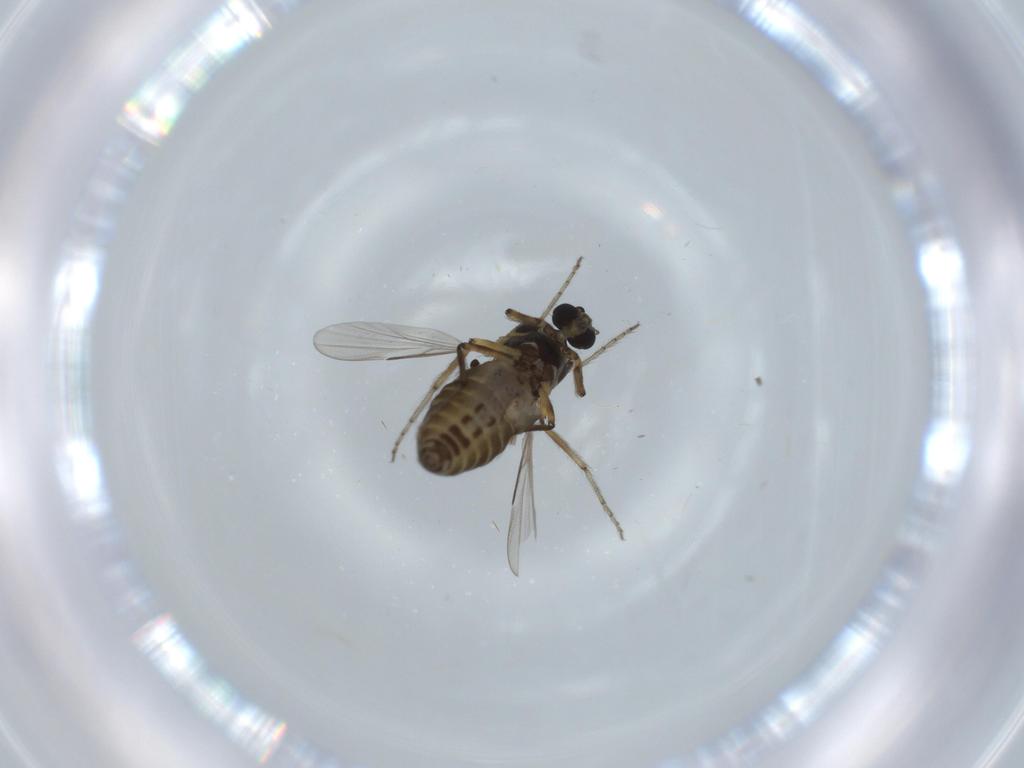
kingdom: Animalia
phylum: Arthropoda
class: Insecta
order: Diptera
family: Ceratopogonidae
